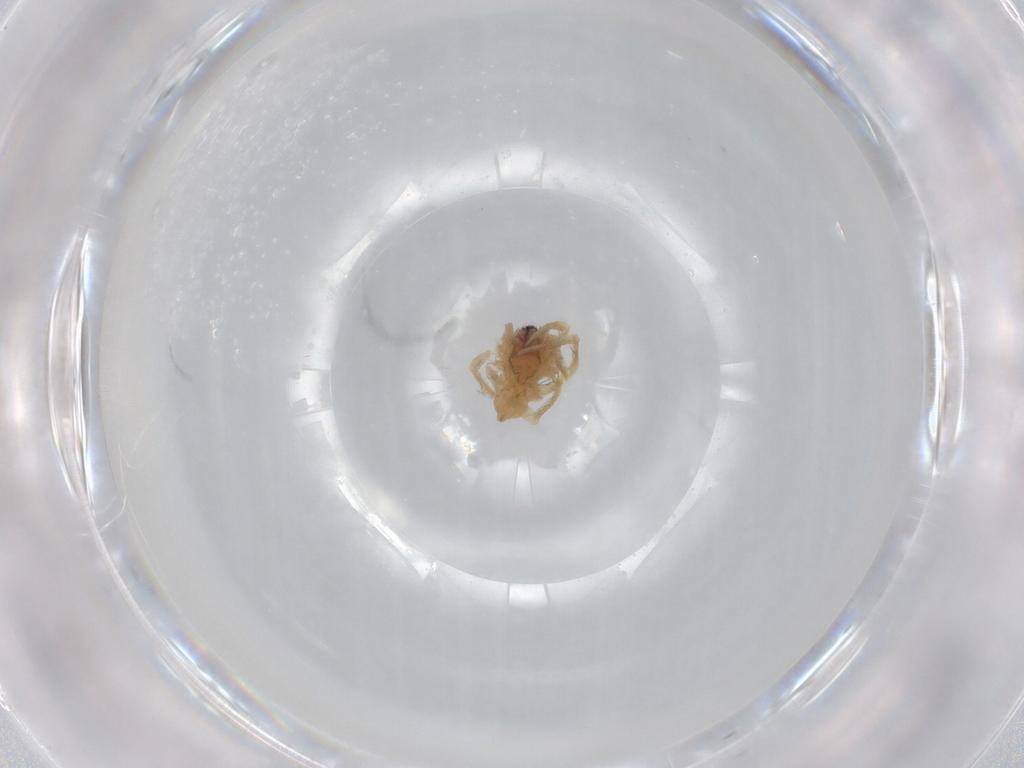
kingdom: Animalia
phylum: Arthropoda
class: Arachnida
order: Araneae
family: Lycosidae
